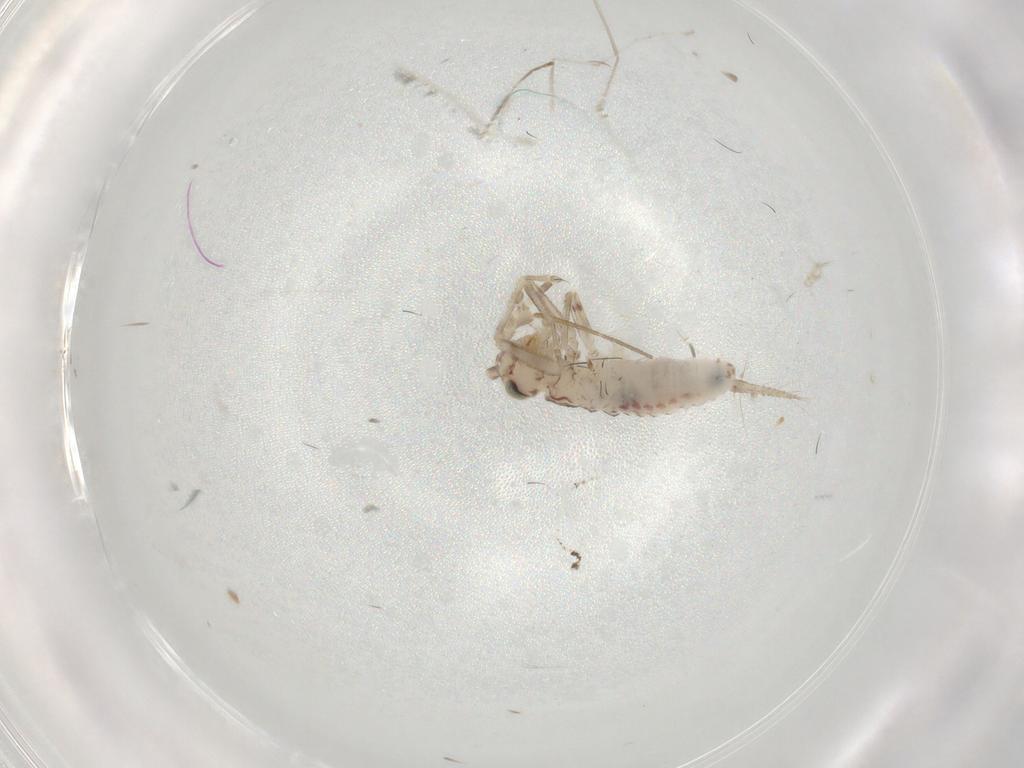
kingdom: Animalia
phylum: Arthropoda
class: Insecta
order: Orthoptera
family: Trigonidiidae
